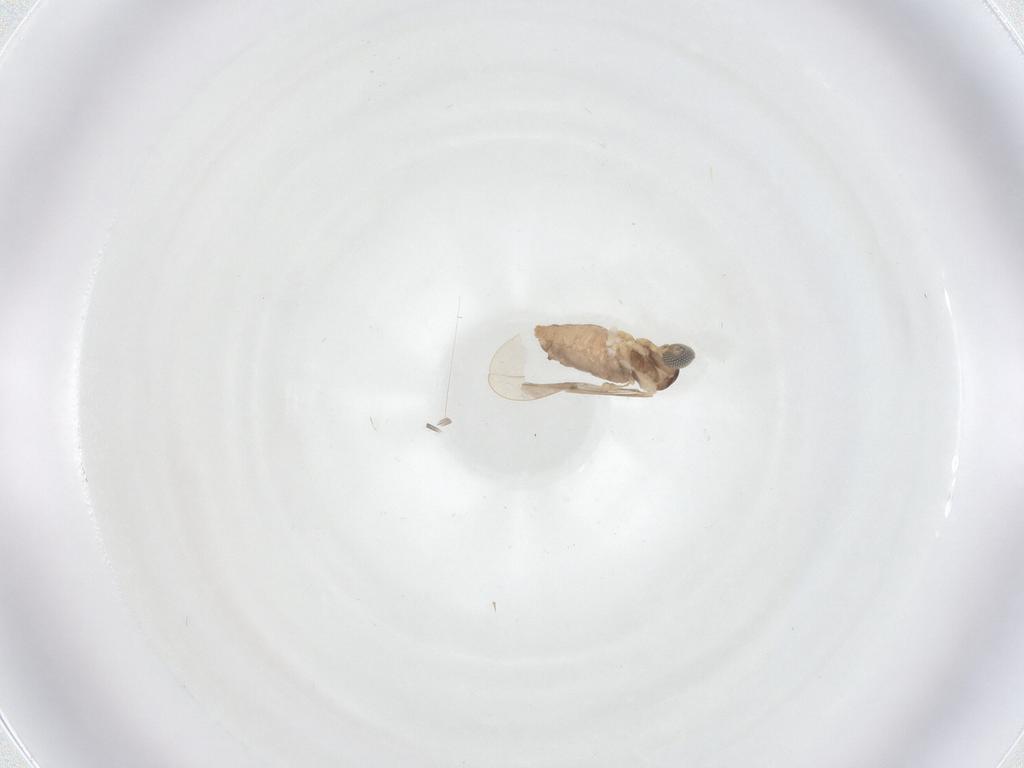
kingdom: Animalia
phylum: Arthropoda
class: Insecta
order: Diptera
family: Cecidomyiidae
